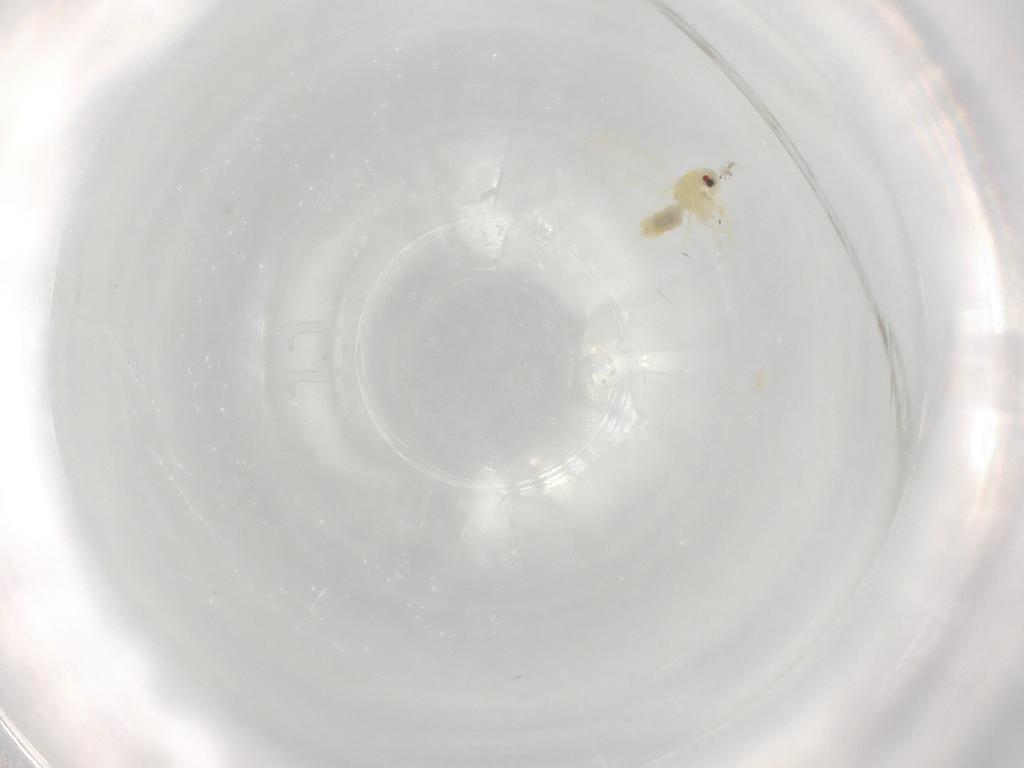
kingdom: Animalia
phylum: Arthropoda
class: Insecta
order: Hemiptera
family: Aleyrodidae
